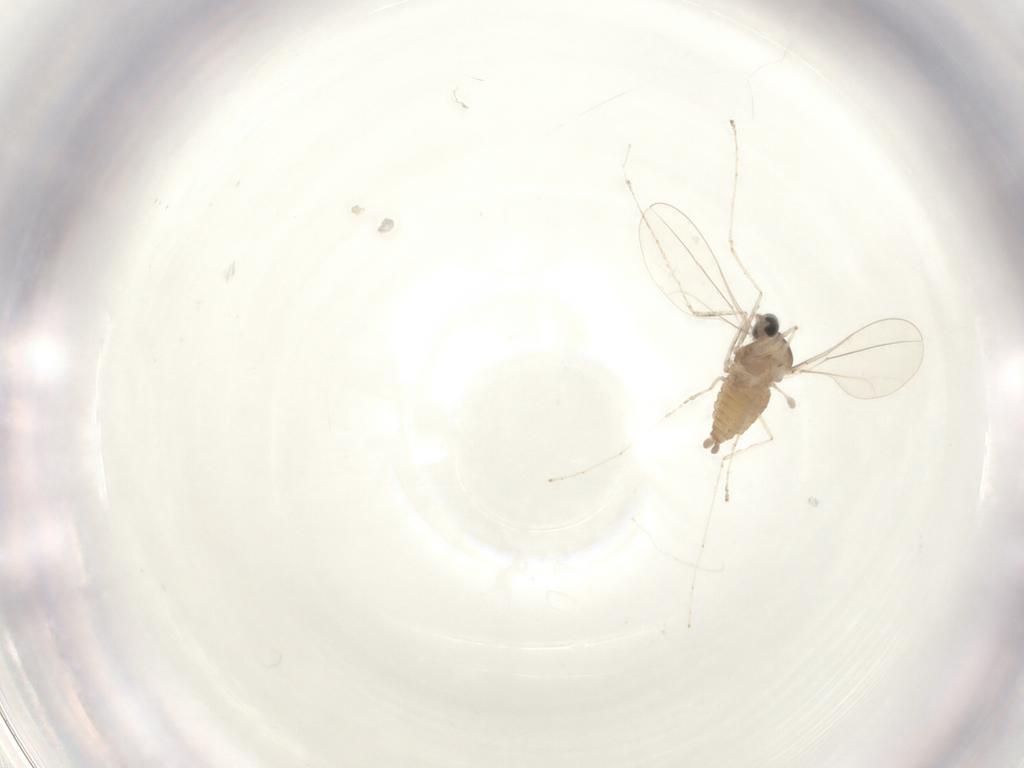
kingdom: Animalia
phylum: Arthropoda
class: Insecta
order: Diptera
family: Cecidomyiidae
